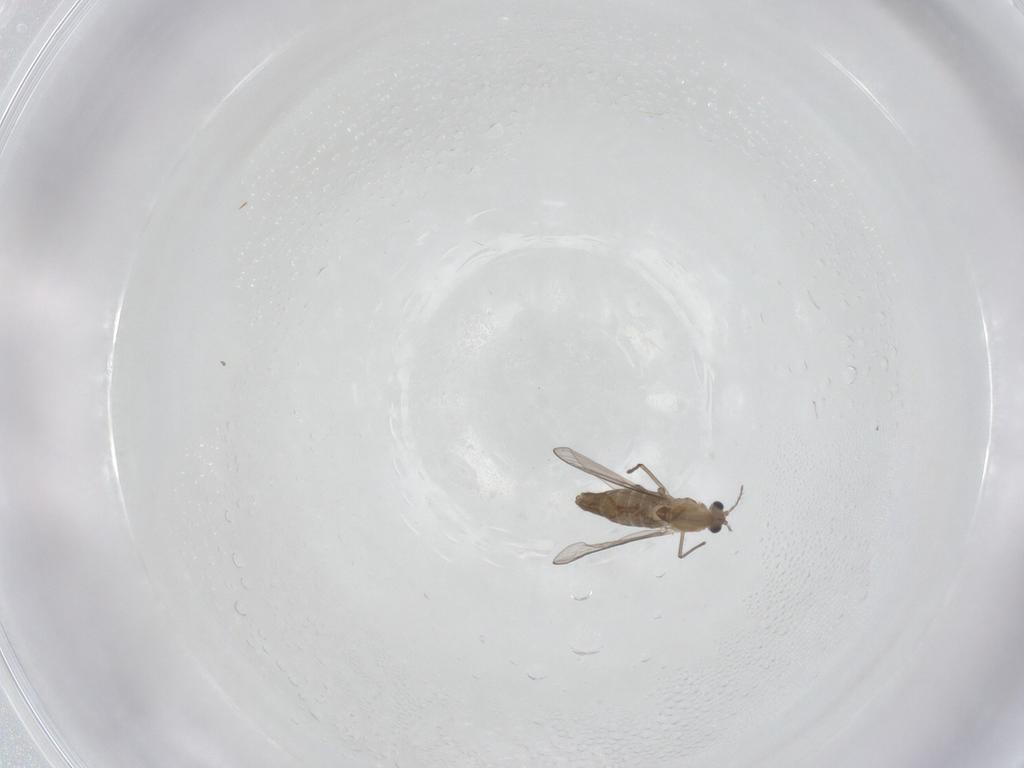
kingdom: Animalia
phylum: Arthropoda
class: Insecta
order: Diptera
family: Chironomidae
